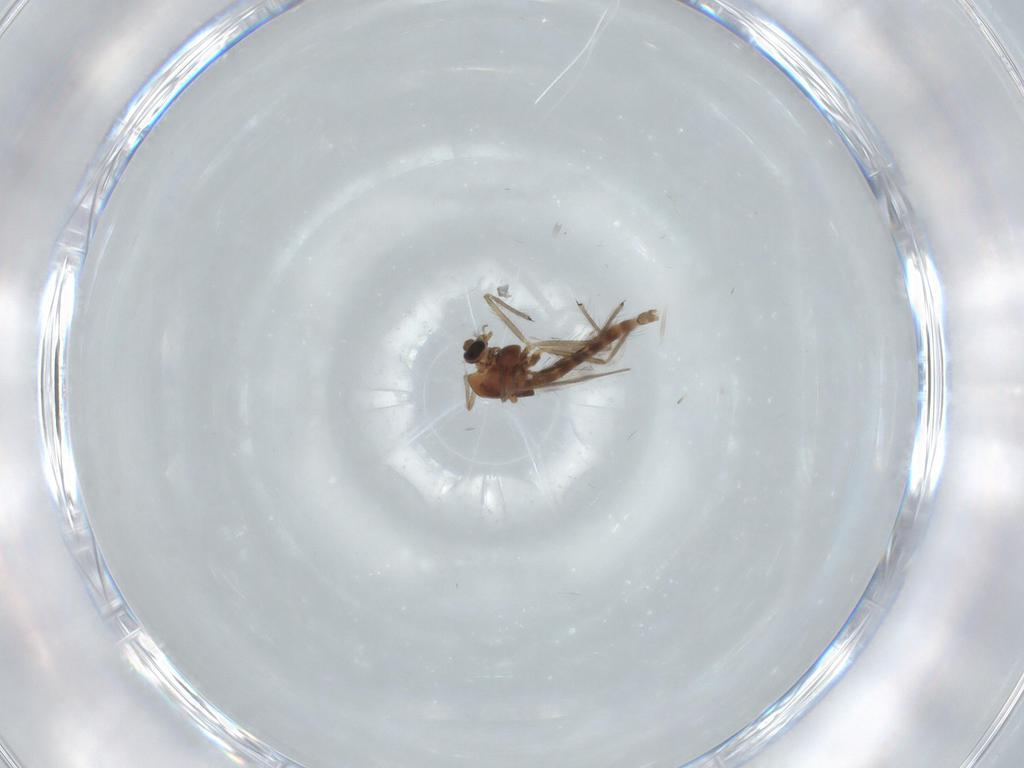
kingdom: Animalia
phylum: Arthropoda
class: Insecta
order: Diptera
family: Chironomidae
